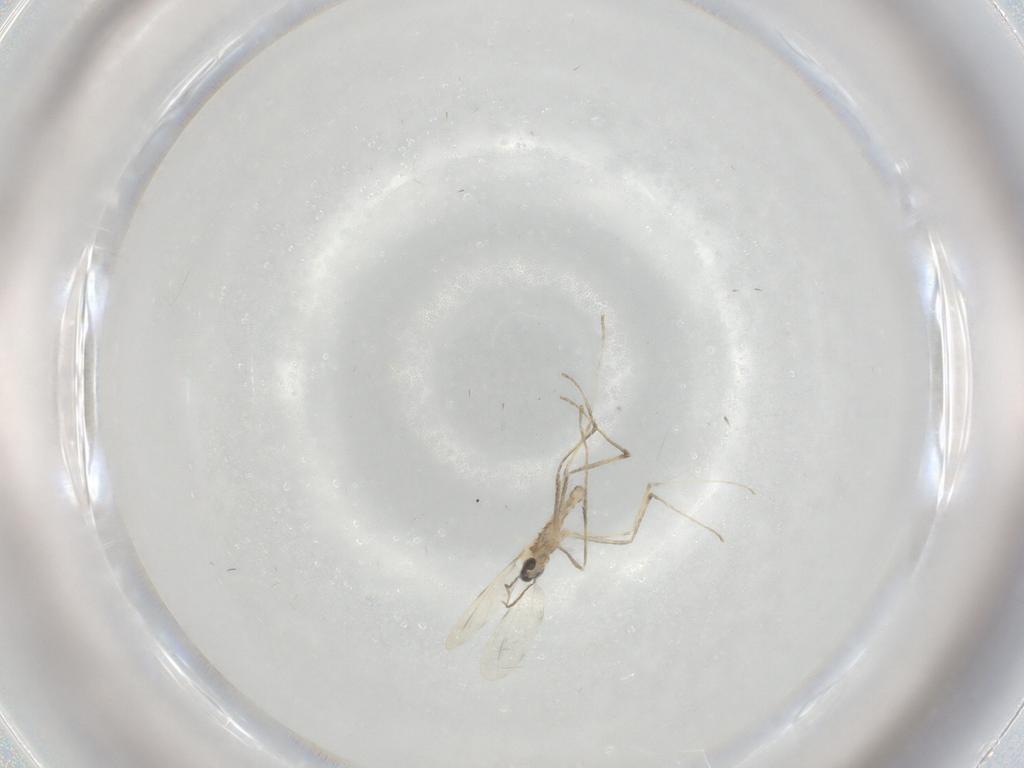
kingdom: Animalia
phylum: Arthropoda
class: Insecta
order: Diptera
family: Cecidomyiidae
